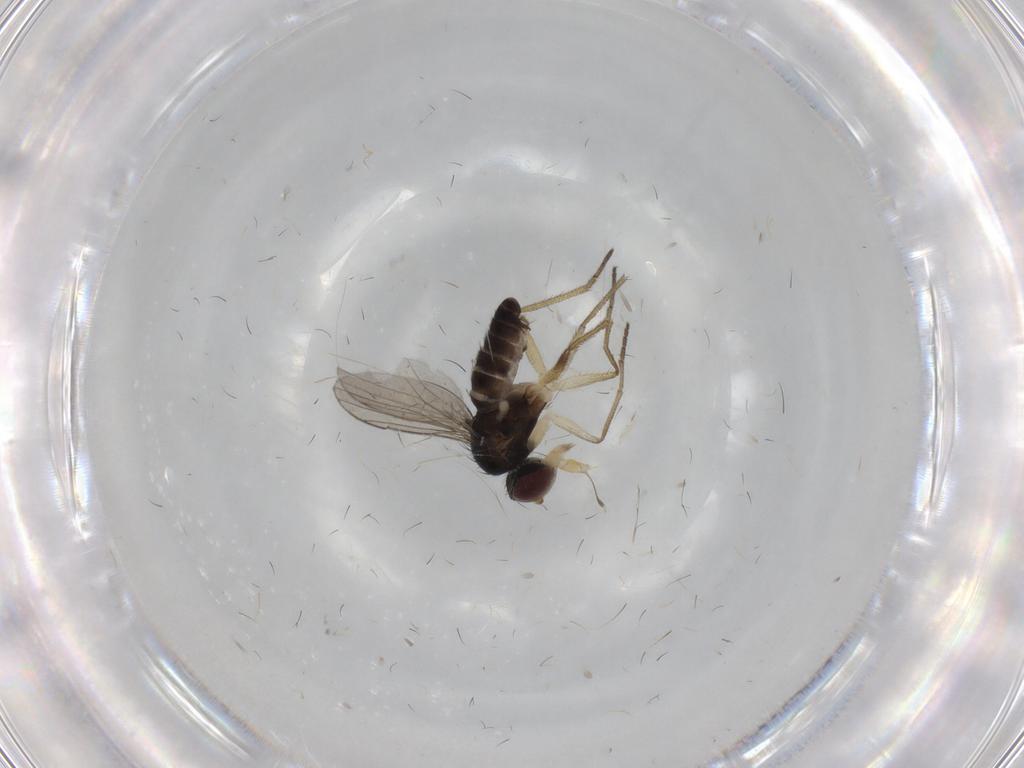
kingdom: Animalia
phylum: Arthropoda
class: Insecta
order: Diptera
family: Dolichopodidae
